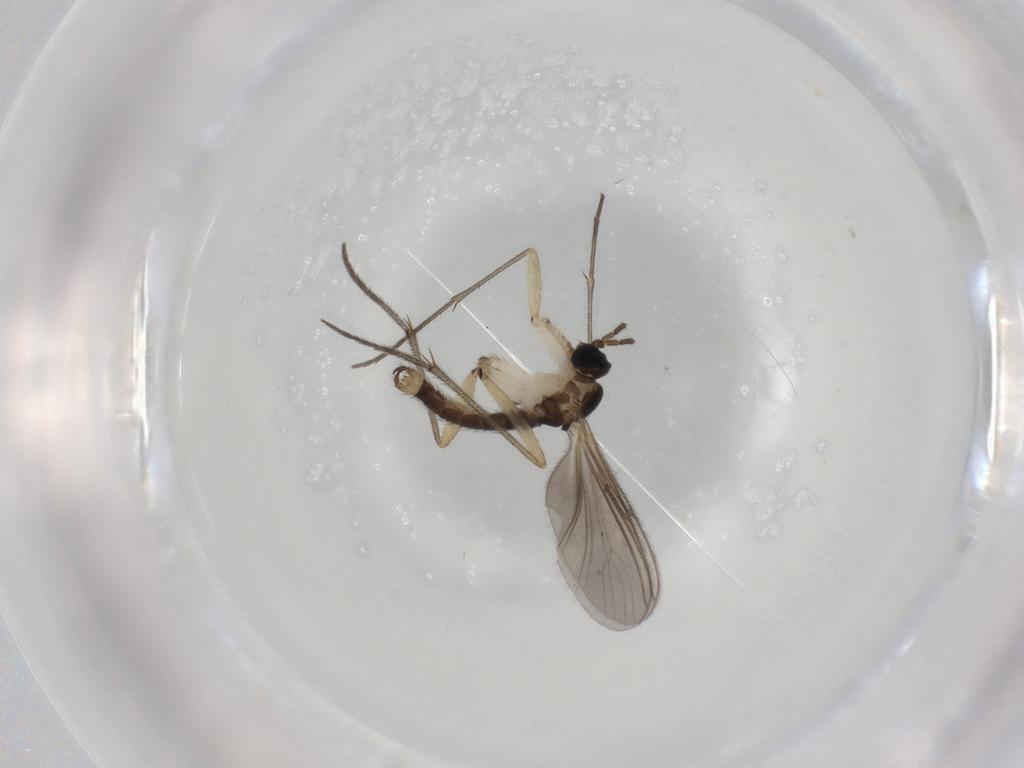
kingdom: Animalia
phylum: Arthropoda
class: Insecta
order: Diptera
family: Sciaridae
